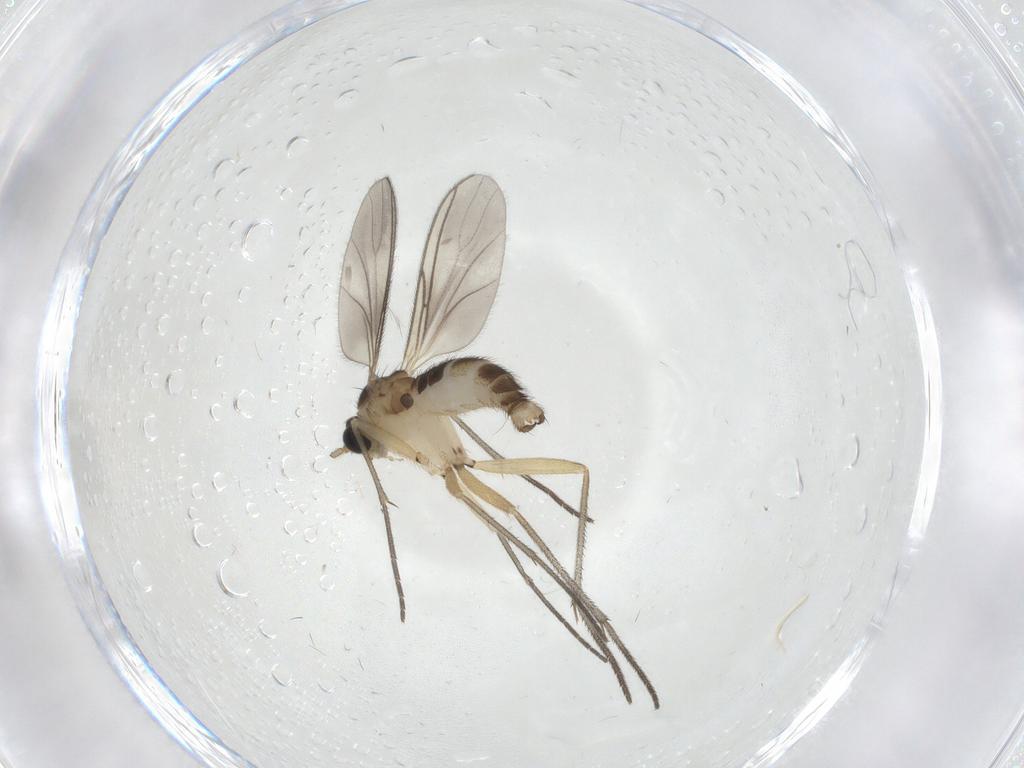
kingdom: Animalia
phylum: Arthropoda
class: Insecta
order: Diptera
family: Sciaridae
